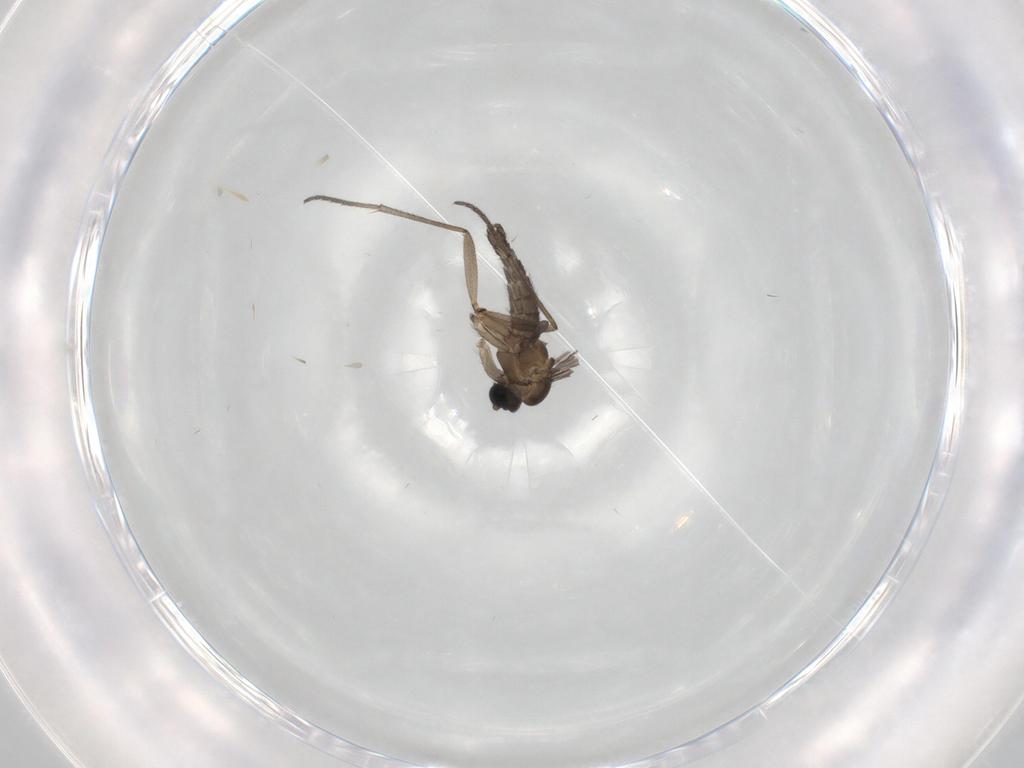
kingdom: Animalia
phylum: Arthropoda
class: Insecta
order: Diptera
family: Sciaridae
